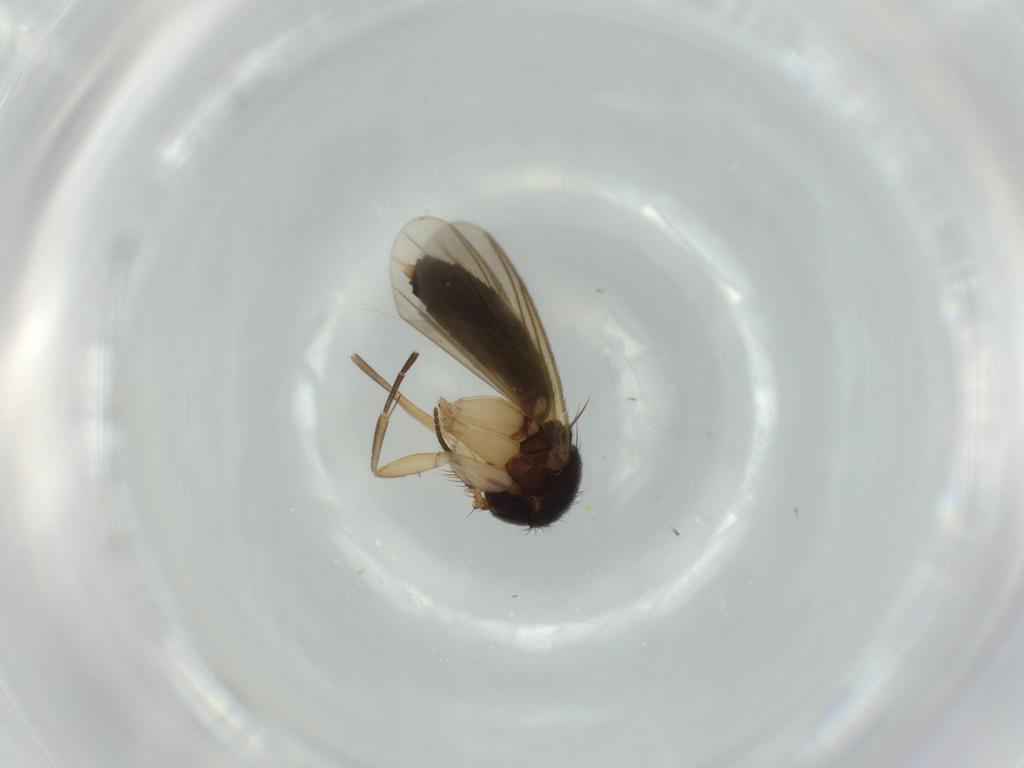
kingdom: Animalia
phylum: Arthropoda
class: Insecta
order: Diptera
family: Mycetophilidae
